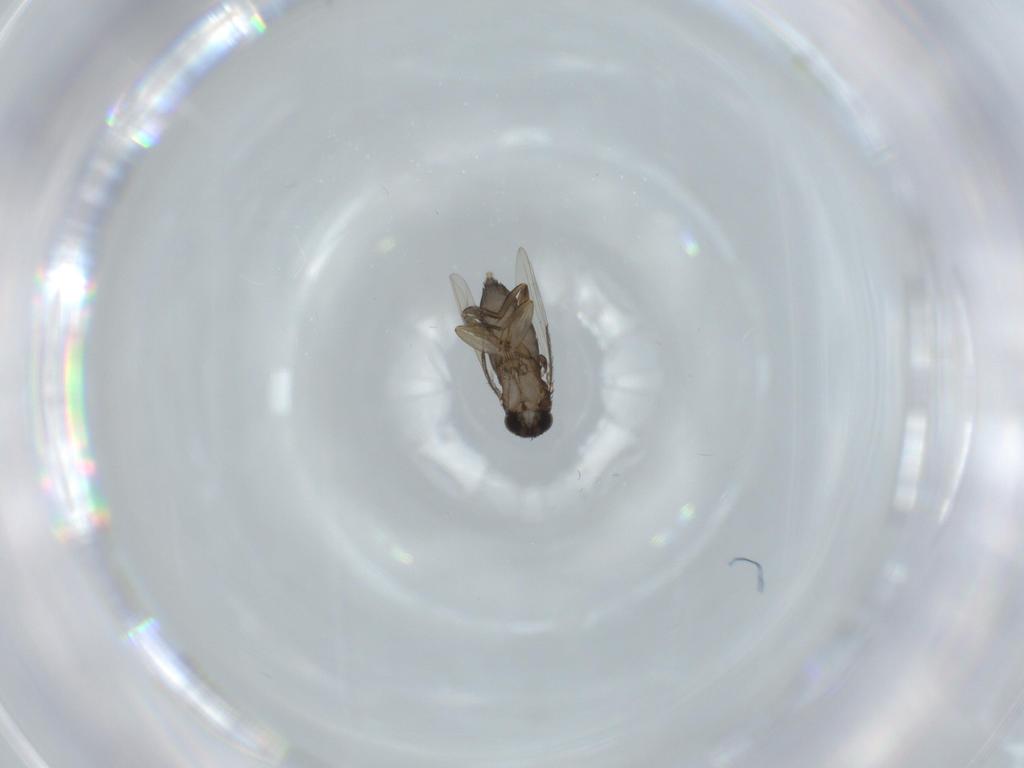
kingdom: Animalia
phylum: Arthropoda
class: Insecta
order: Diptera
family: Phoridae
